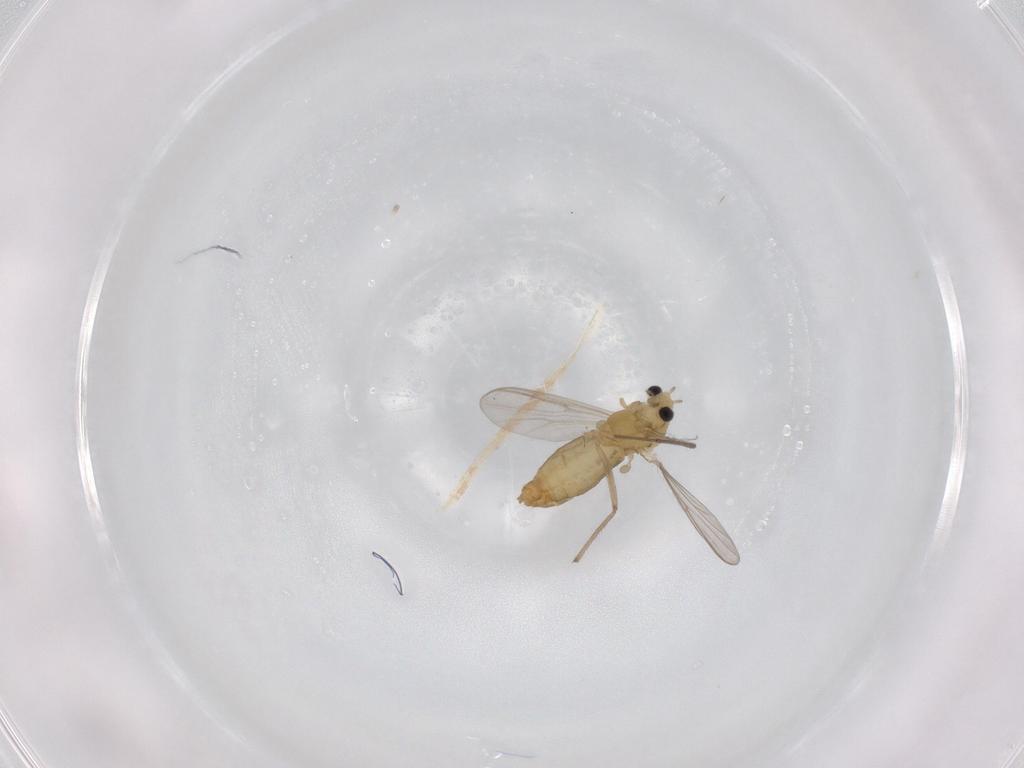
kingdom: Animalia
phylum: Arthropoda
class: Insecta
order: Diptera
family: Chironomidae
